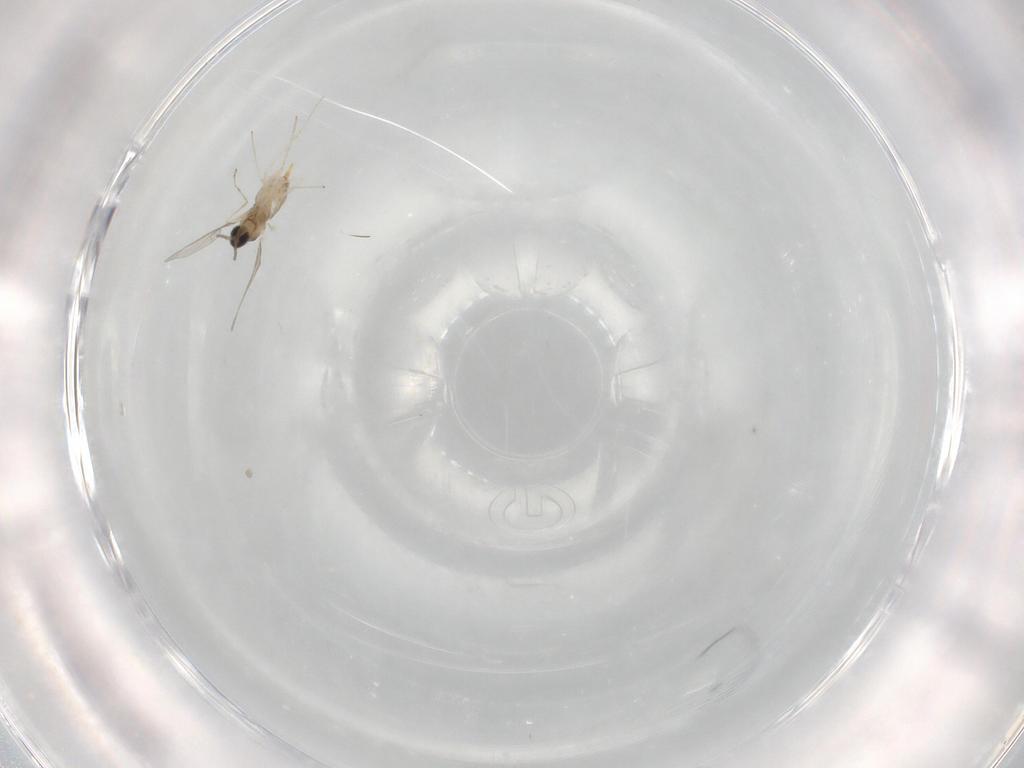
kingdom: Animalia
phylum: Arthropoda
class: Insecta
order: Diptera
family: Cecidomyiidae
